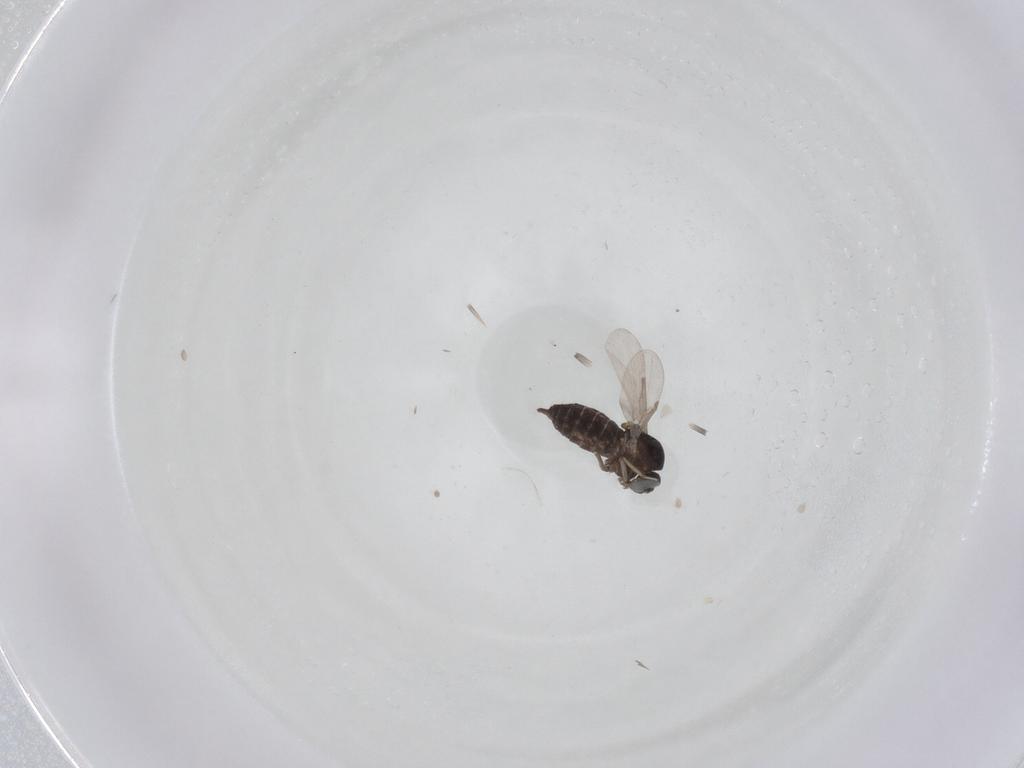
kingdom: Animalia
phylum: Arthropoda
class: Insecta
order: Diptera
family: Ceratopogonidae
